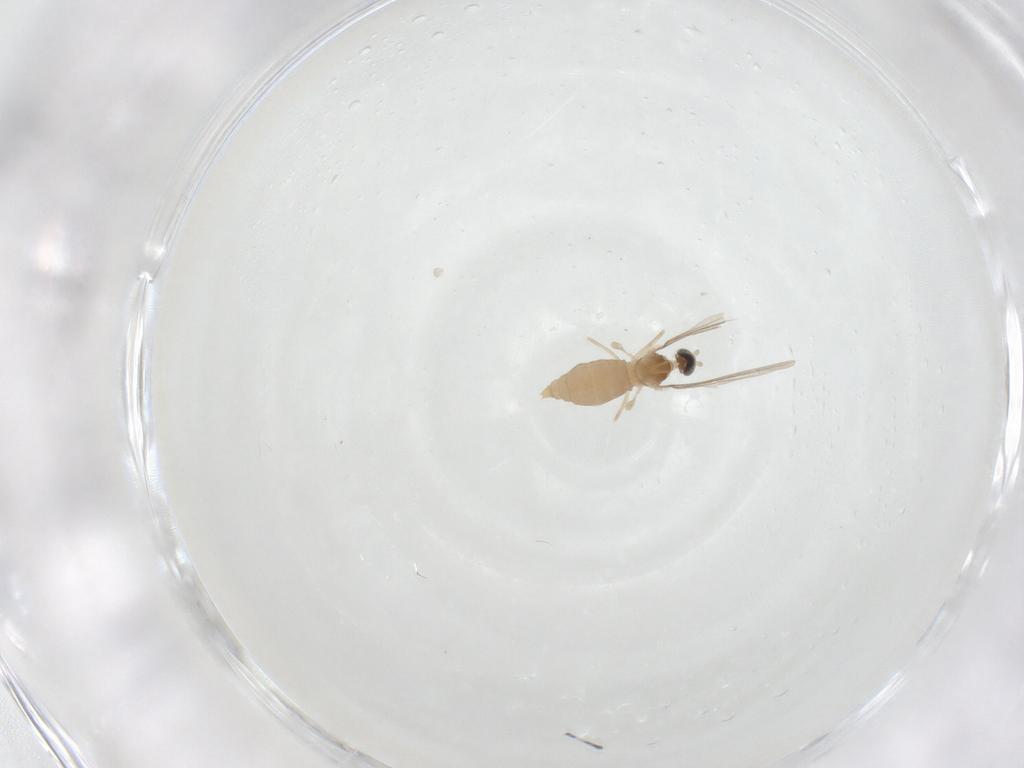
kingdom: Animalia
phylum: Arthropoda
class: Insecta
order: Diptera
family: Cecidomyiidae
